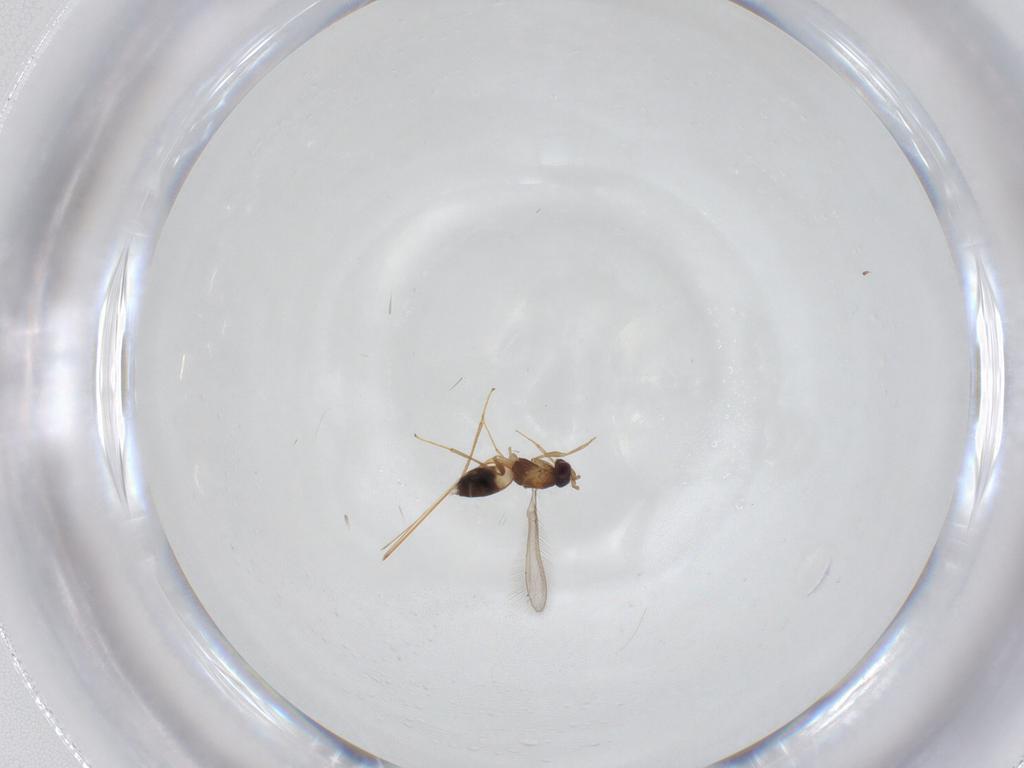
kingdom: Animalia
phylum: Arthropoda
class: Insecta
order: Hymenoptera
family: Mymaridae
